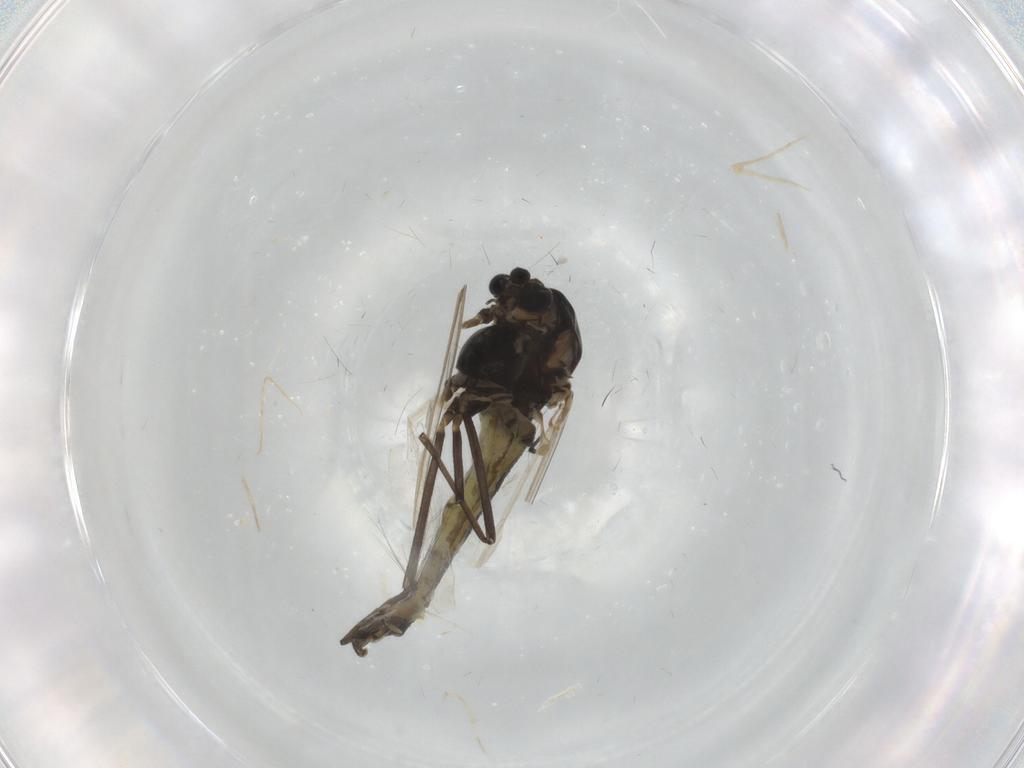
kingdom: Animalia
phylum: Arthropoda
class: Insecta
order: Diptera
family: Chironomidae
